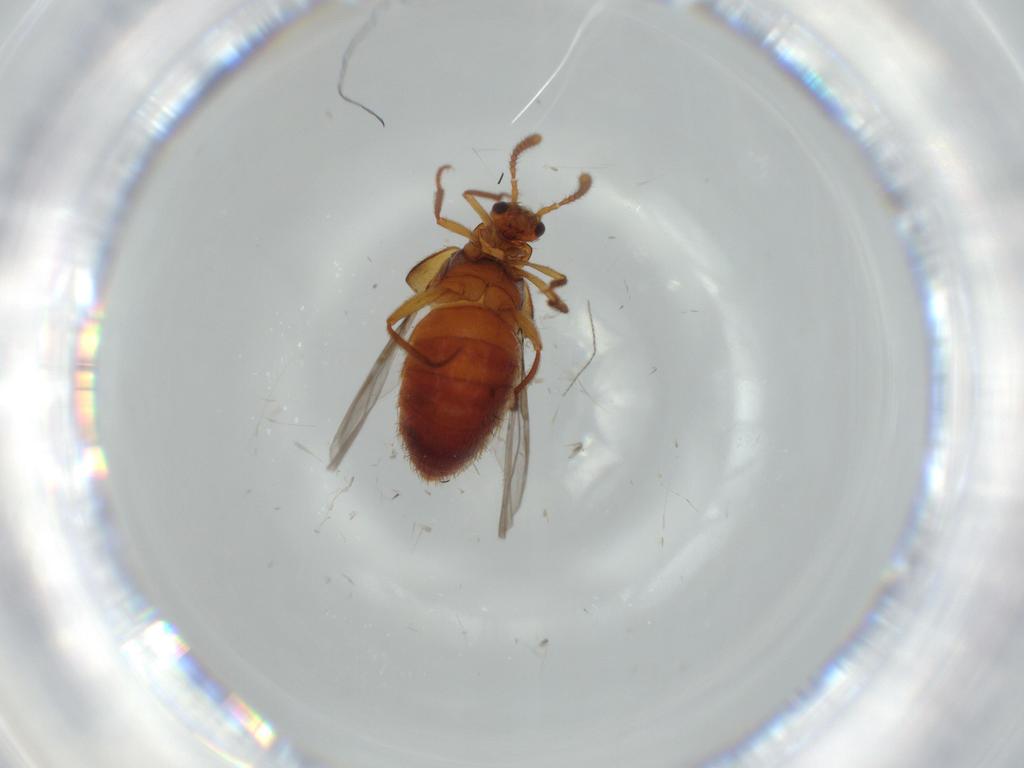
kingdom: Animalia
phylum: Arthropoda
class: Insecta
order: Coleoptera
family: Staphylinidae
